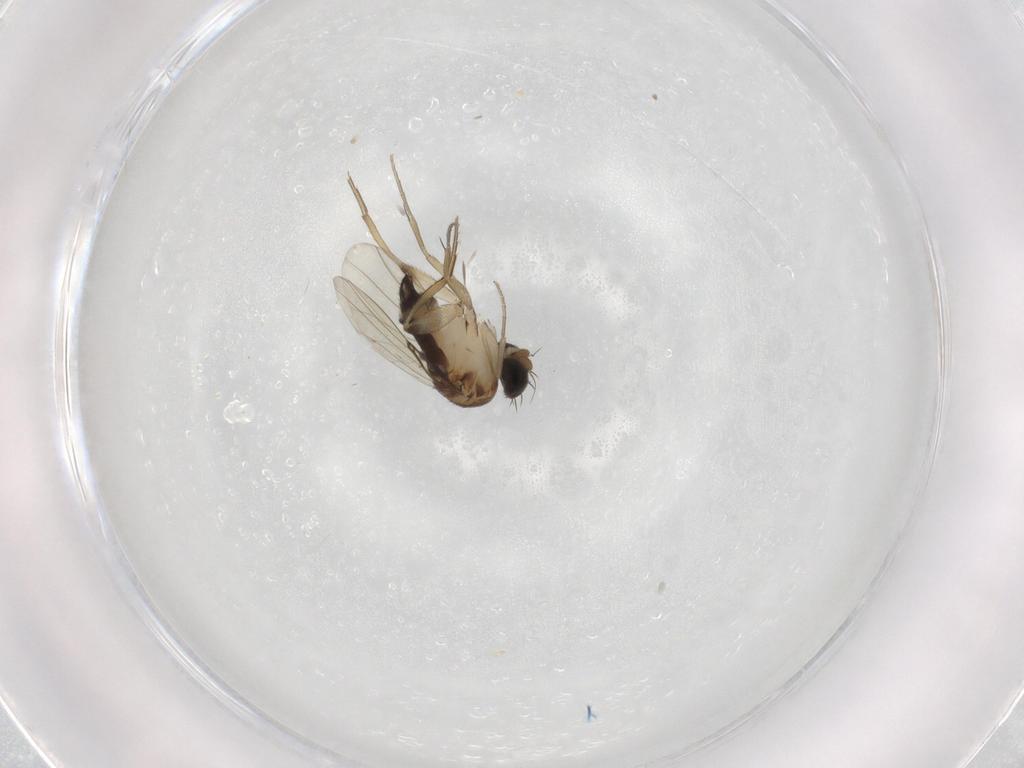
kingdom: Animalia
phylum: Arthropoda
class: Insecta
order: Diptera
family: Phoridae
